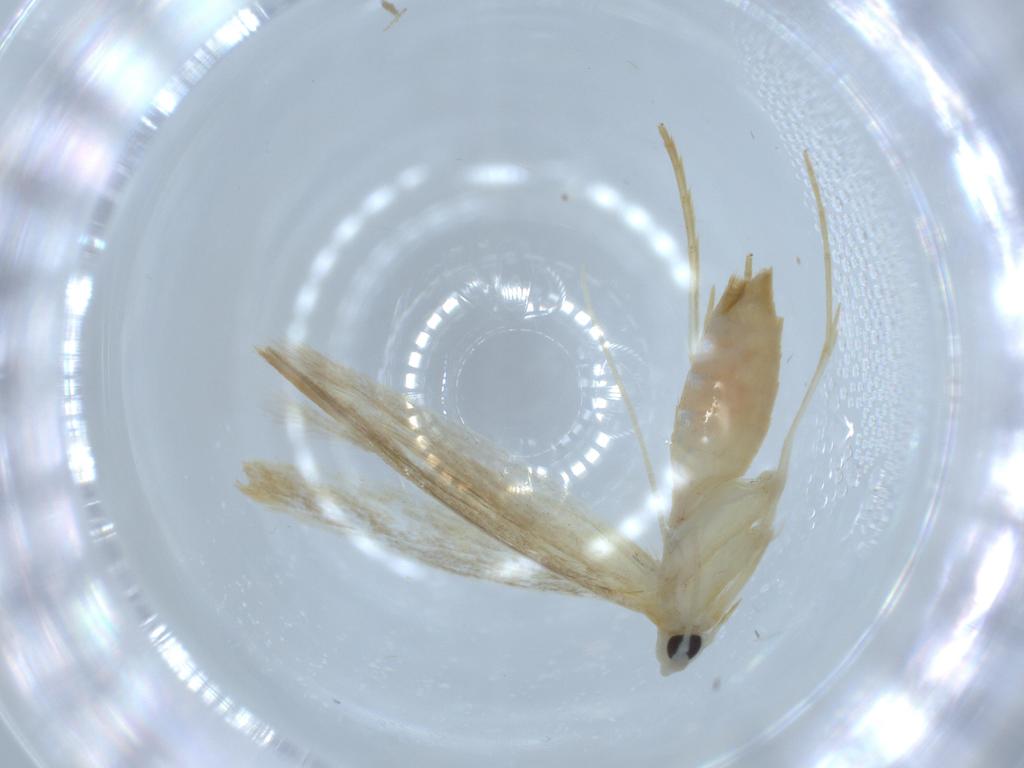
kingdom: Animalia
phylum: Arthropoda
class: Insecta
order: Lepidoptera
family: Lyonetiidae
